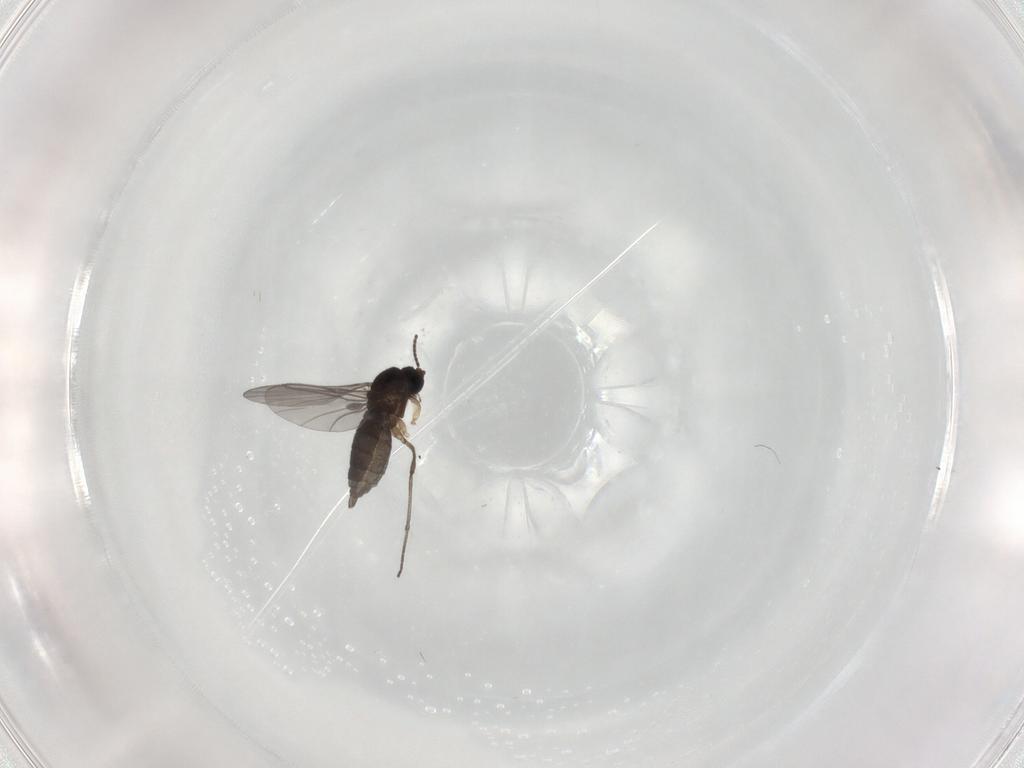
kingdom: Animalia
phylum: Arthropoda
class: Insecta
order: Diptera
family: Sciaridae
